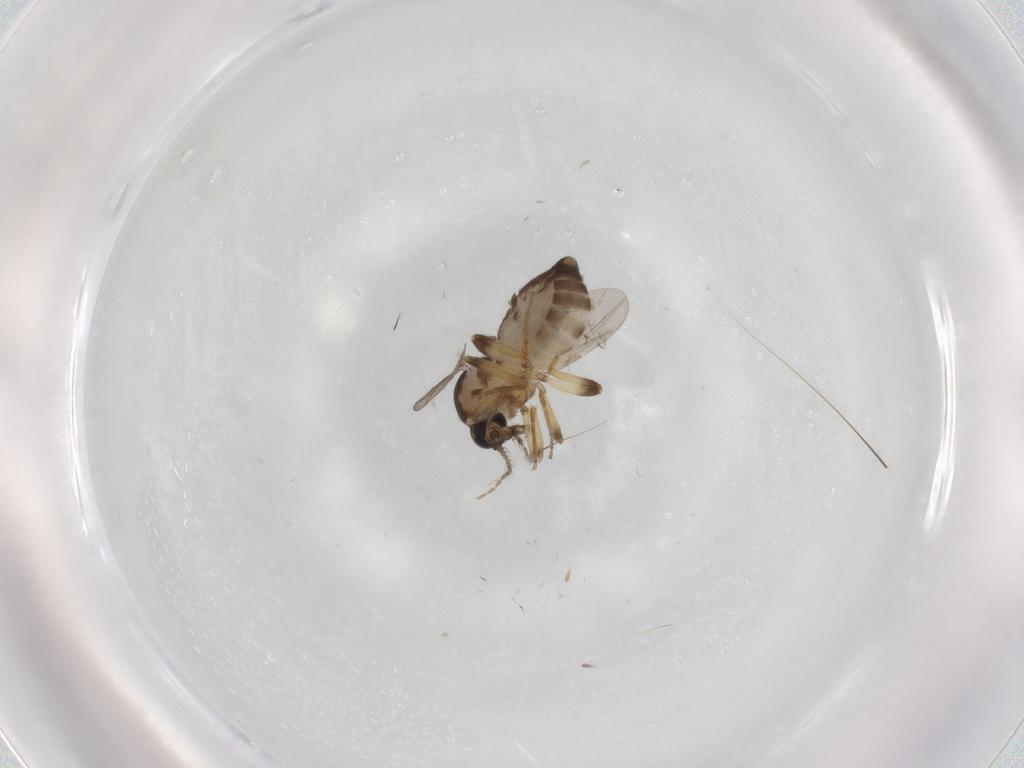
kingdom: Animalia
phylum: Arthropoda
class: Insecta
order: Diptera
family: Ceratopogonidae
